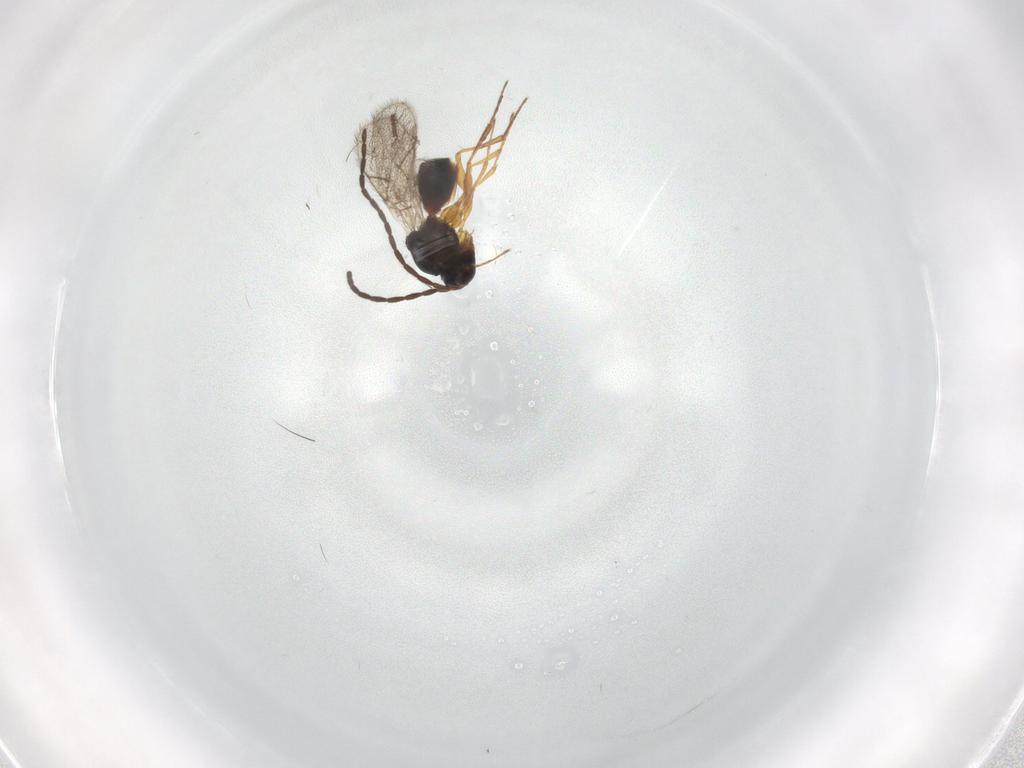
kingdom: Animalia
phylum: Arthropoda
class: Insecta
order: Hymenoptera
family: Figitidae
